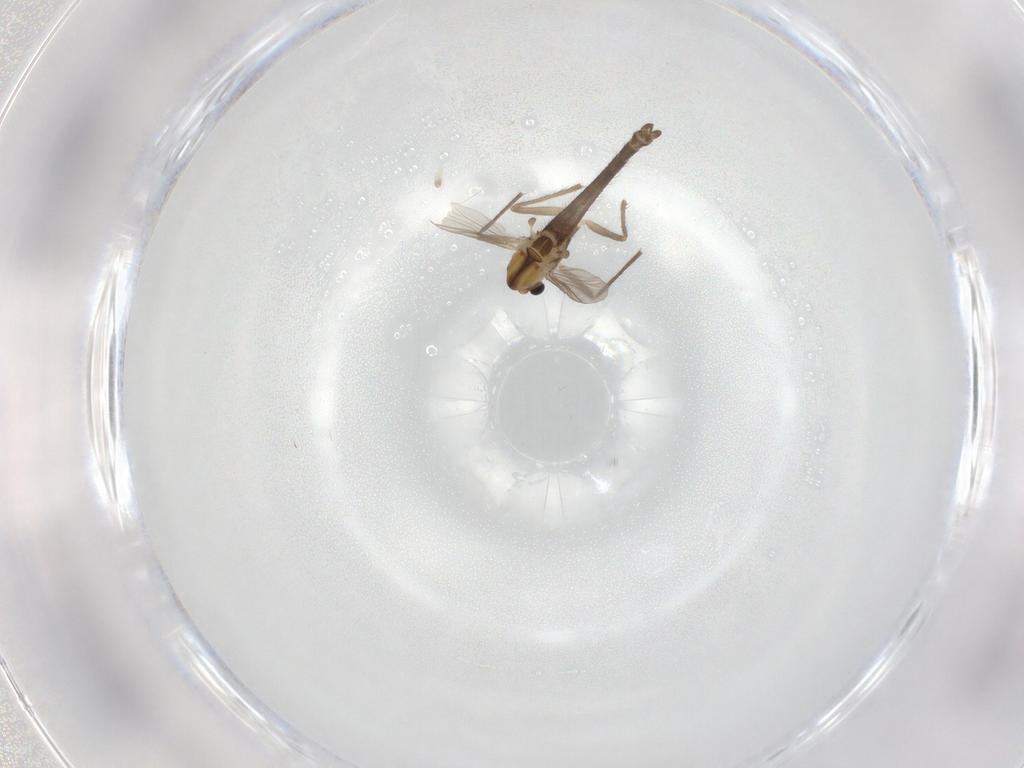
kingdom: Animalia
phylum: Arthropoda
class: Insecta
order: Diptera
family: Chironomidae
